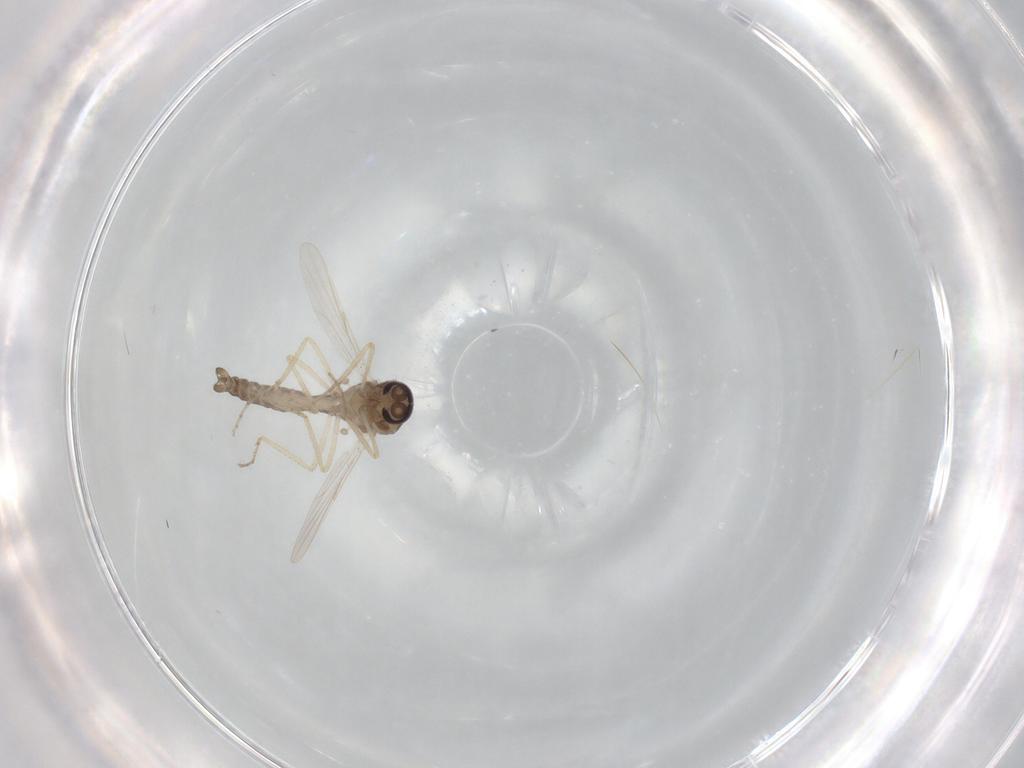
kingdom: Animalia
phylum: Arthropoda
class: Insecta
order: Diptera
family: Ceratopogonidae
